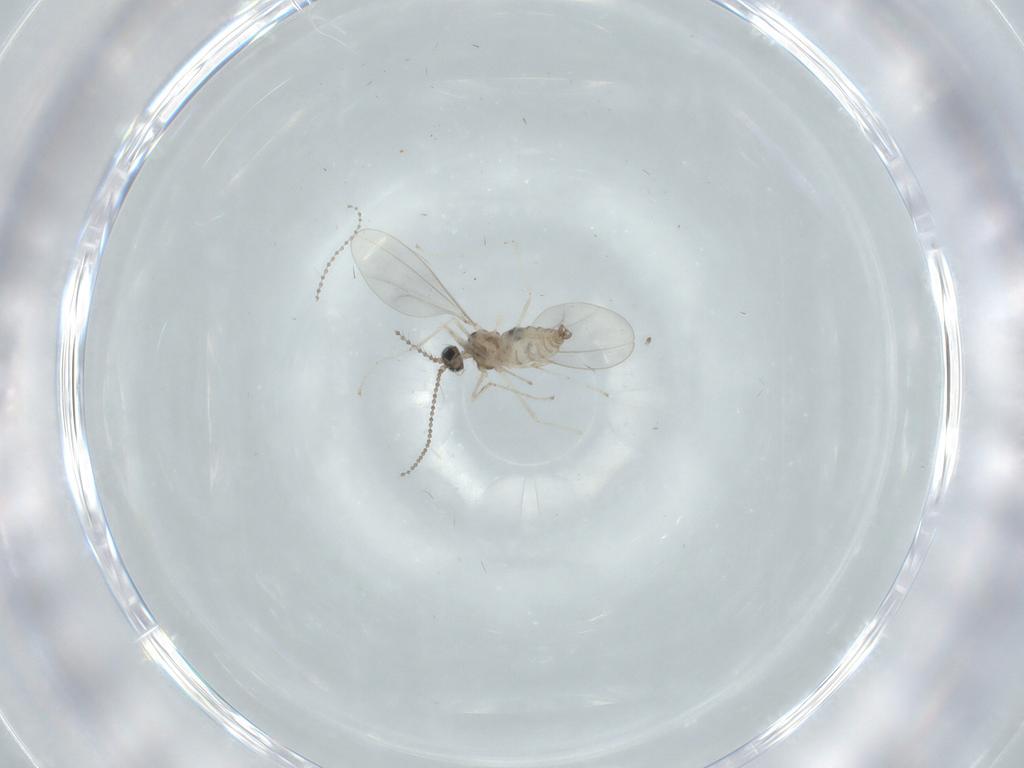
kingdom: Animalia
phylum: Arthropoda
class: Insecta
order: Diptera
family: Cecidomyiidae
